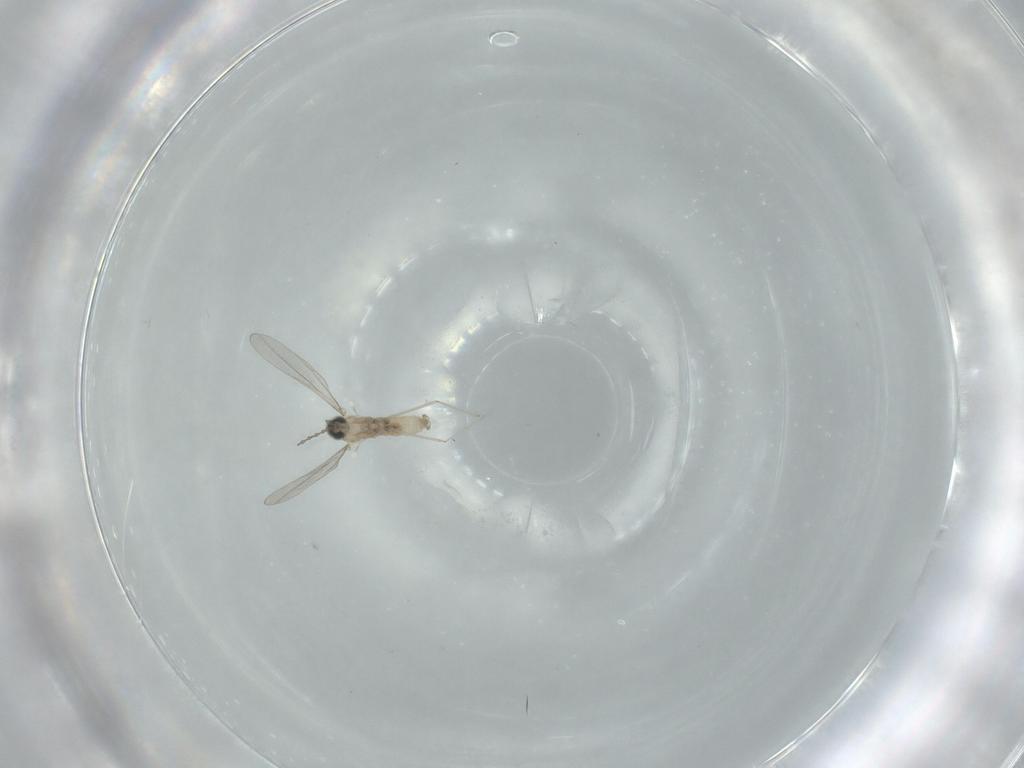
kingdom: Animalia
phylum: Arthropoda
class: Insecta
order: Diptera
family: Cecidomyiidae
